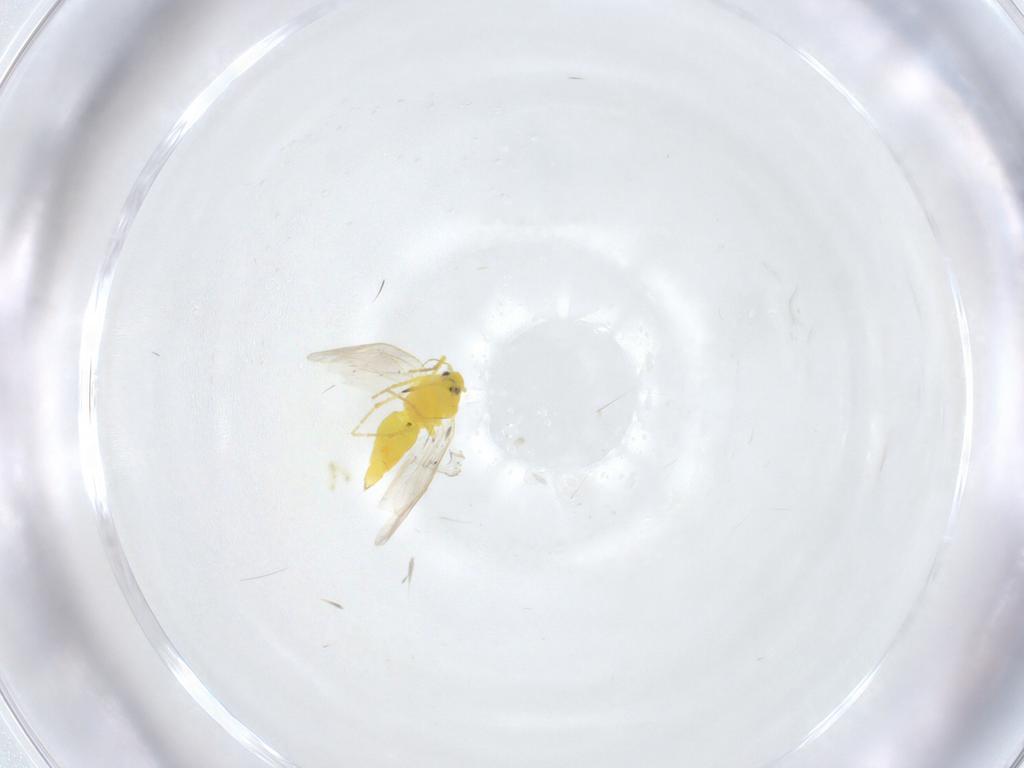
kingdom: Animalia
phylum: Arthropoda
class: Insecta
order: Hemiptera
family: Aleyrodidae
